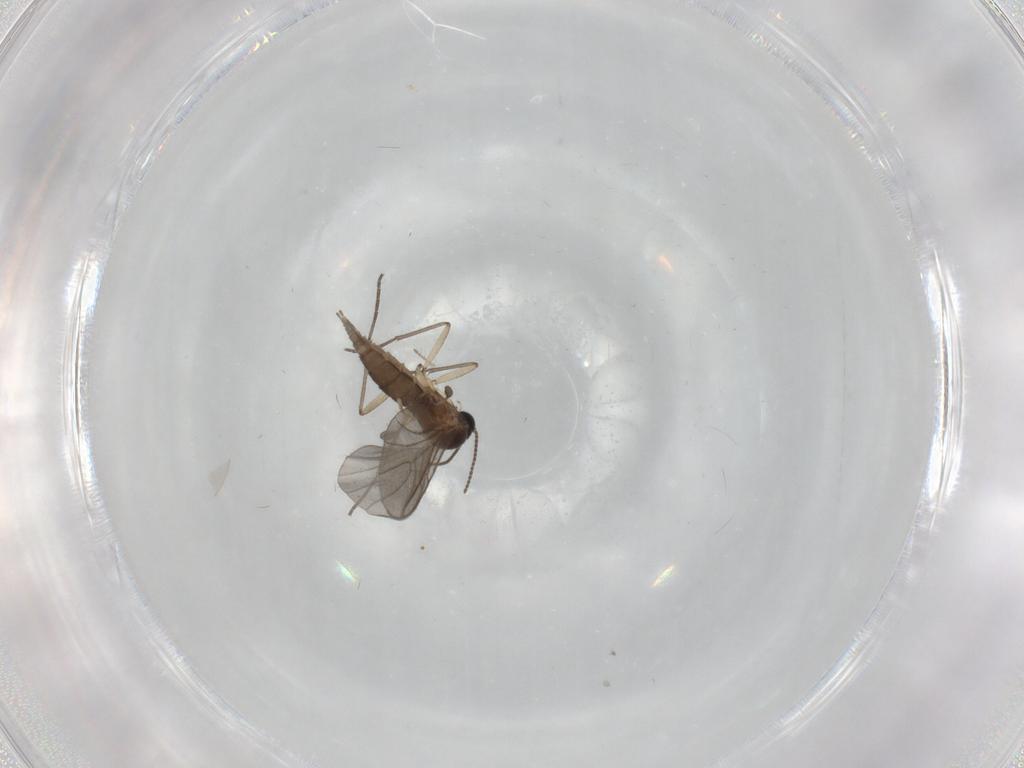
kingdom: Animalia
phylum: Arthropoda
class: Insecta
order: Diptera
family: Sciaridae
